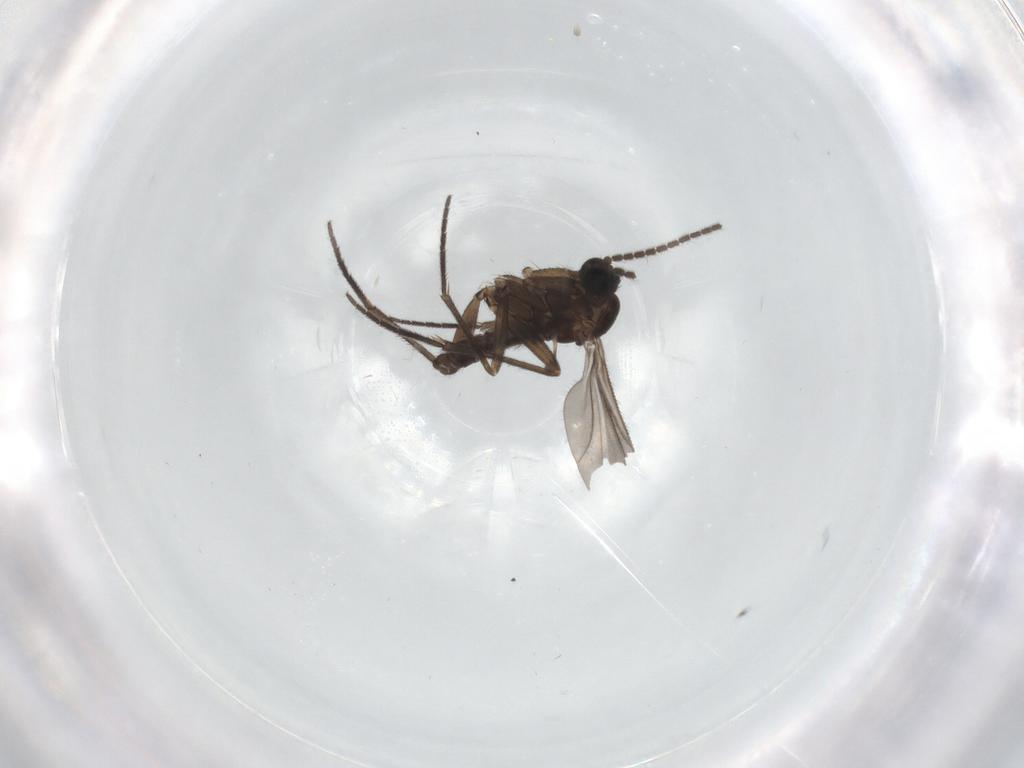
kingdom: Animalia
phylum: Arthropoda
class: Insecta
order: Diptera
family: Sciaridae
